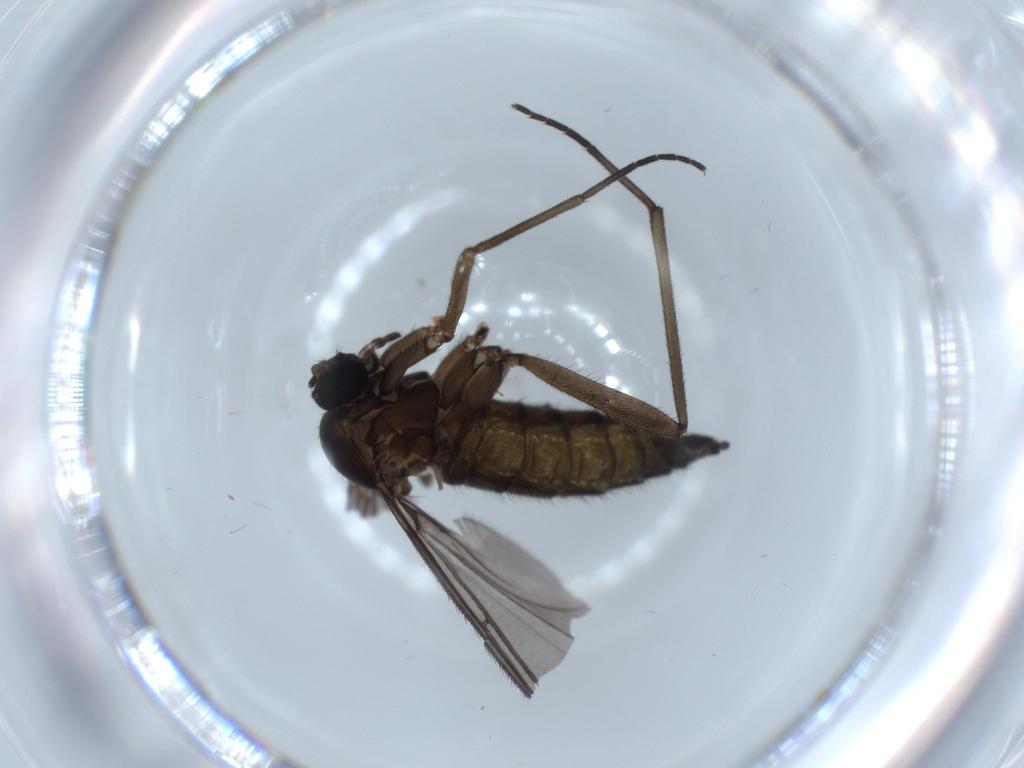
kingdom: Animalia
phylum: Arthropoda
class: Insecta
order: Diptera
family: Sciaridae
